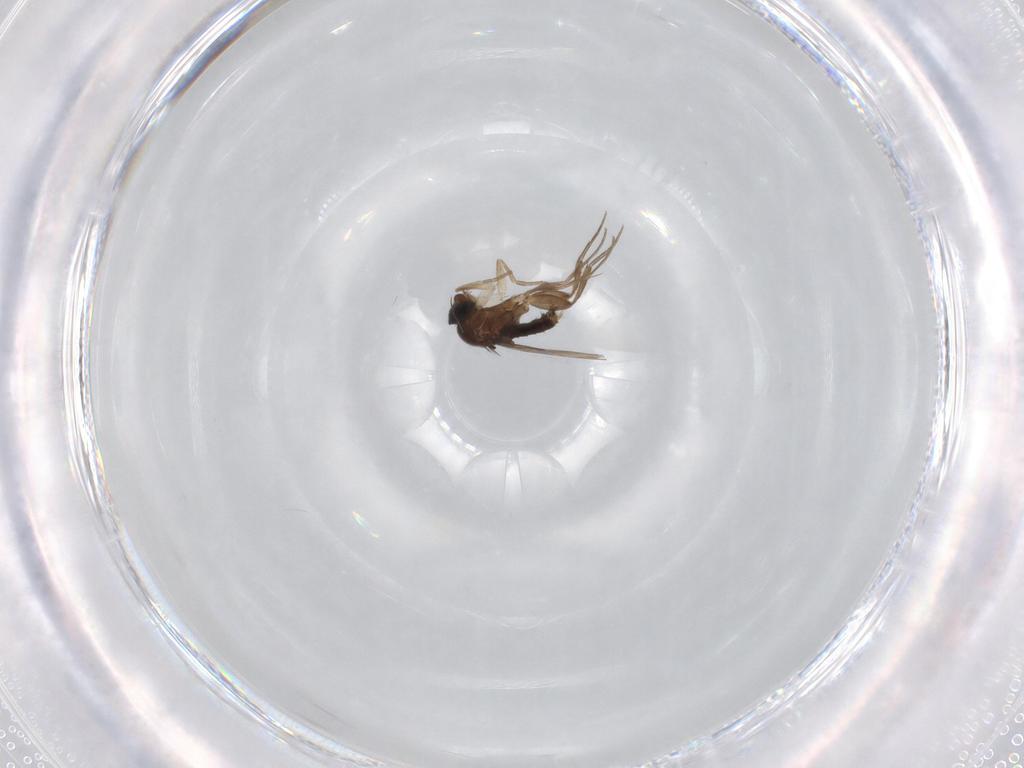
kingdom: Animalia
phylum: Arthropoda
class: Insecta
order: Diptera
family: Phoridae
